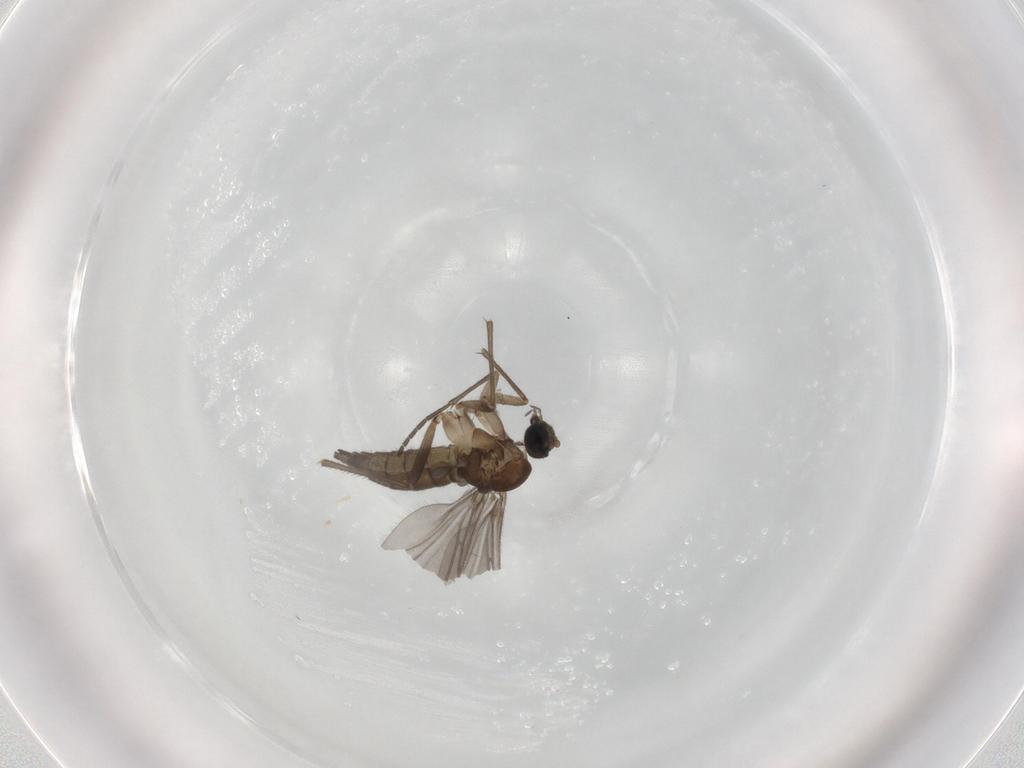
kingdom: Animalia
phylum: Arthropoda
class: Insecta
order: Diptera
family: Sciaridae
